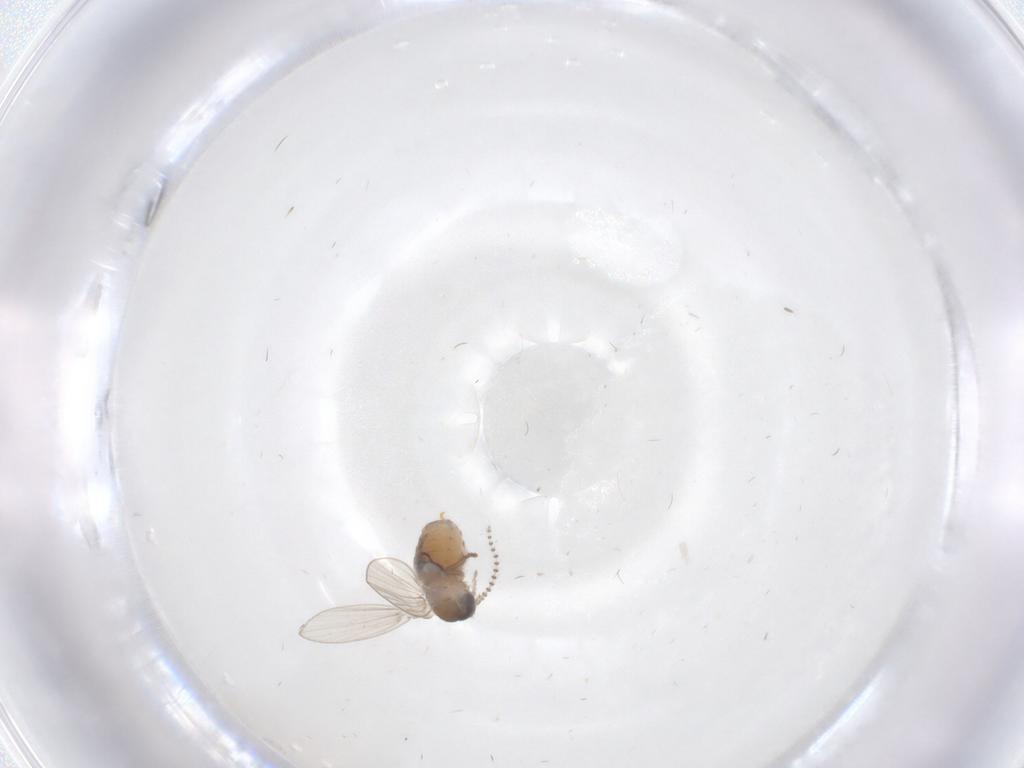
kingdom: Animalia
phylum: Arthropoda
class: Insecta
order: Diptera
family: Psychodidae
